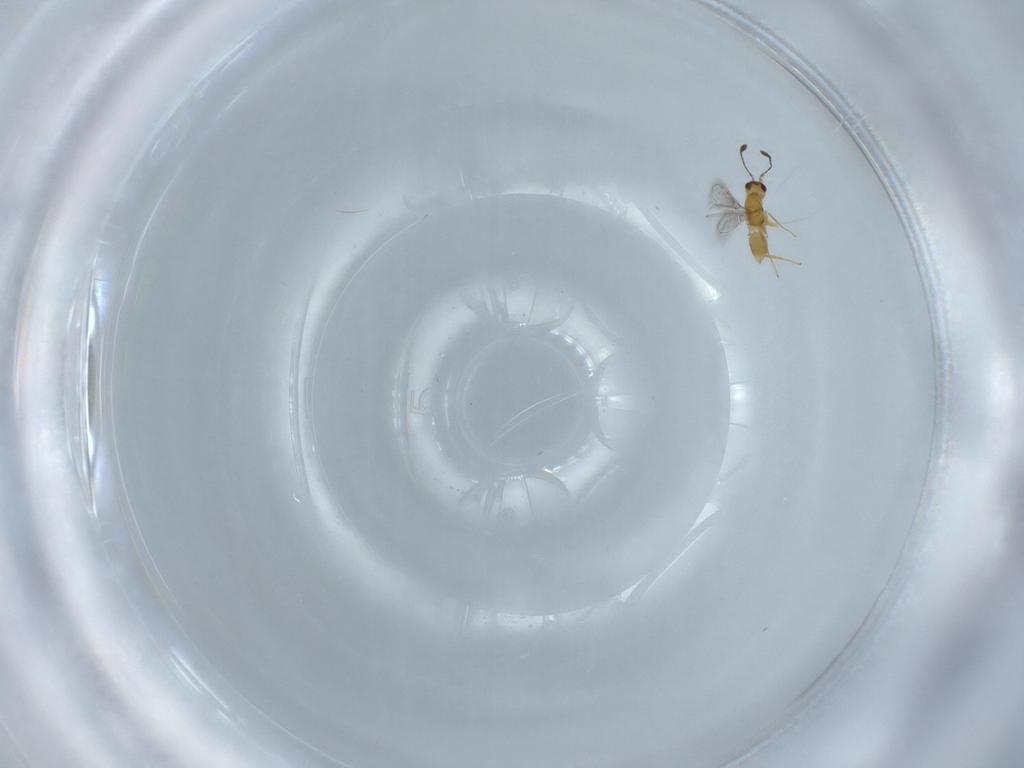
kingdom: Animalia
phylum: Arthropoda
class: Insecta
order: Hymenoptera
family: Mymaridae
